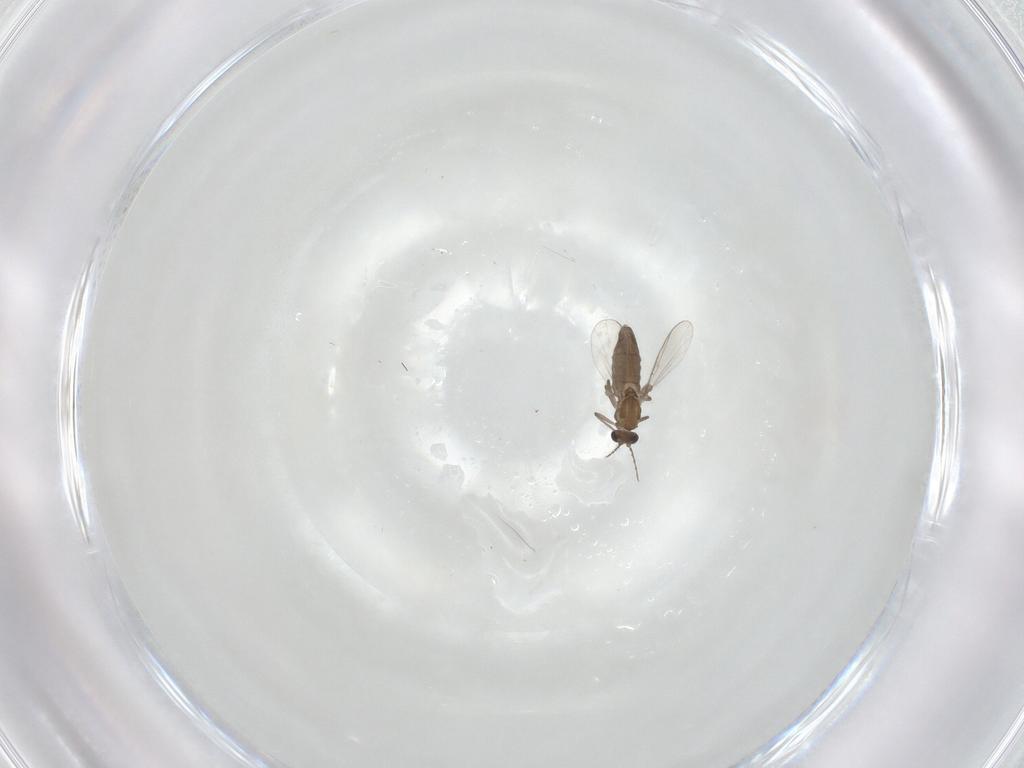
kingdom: Animalia
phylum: Arthropoda
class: Insecta
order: Diptera
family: Chironomidae
